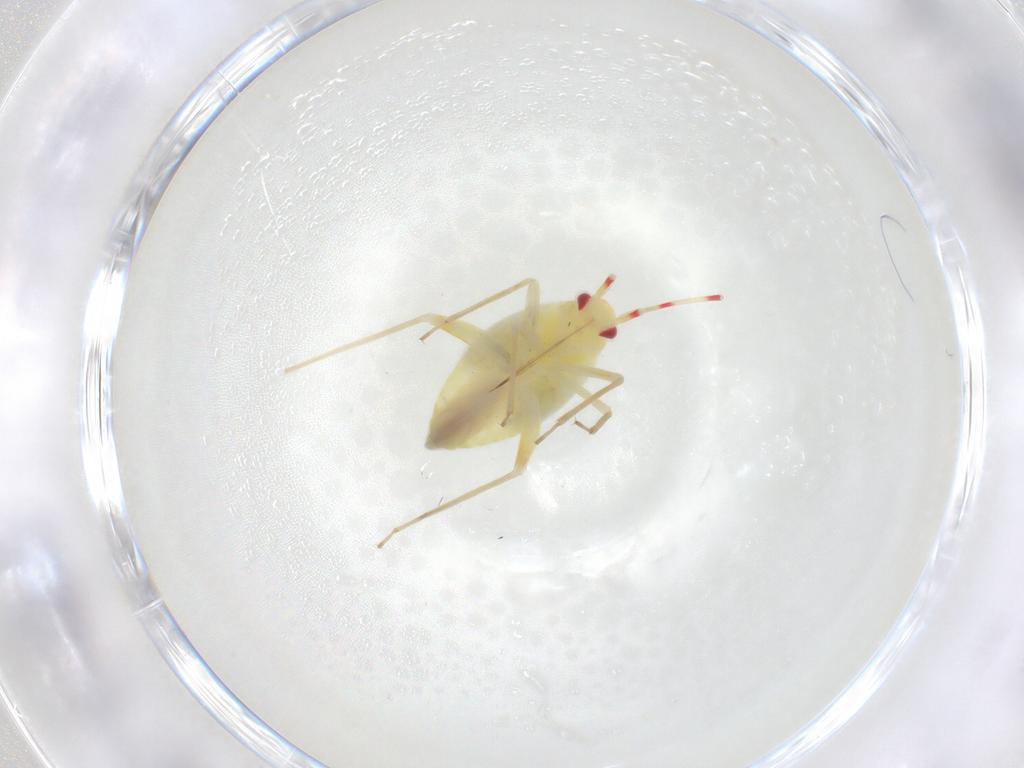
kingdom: Animalia
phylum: Arthropoda
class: Insecta
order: Hemiptera
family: Miridae
